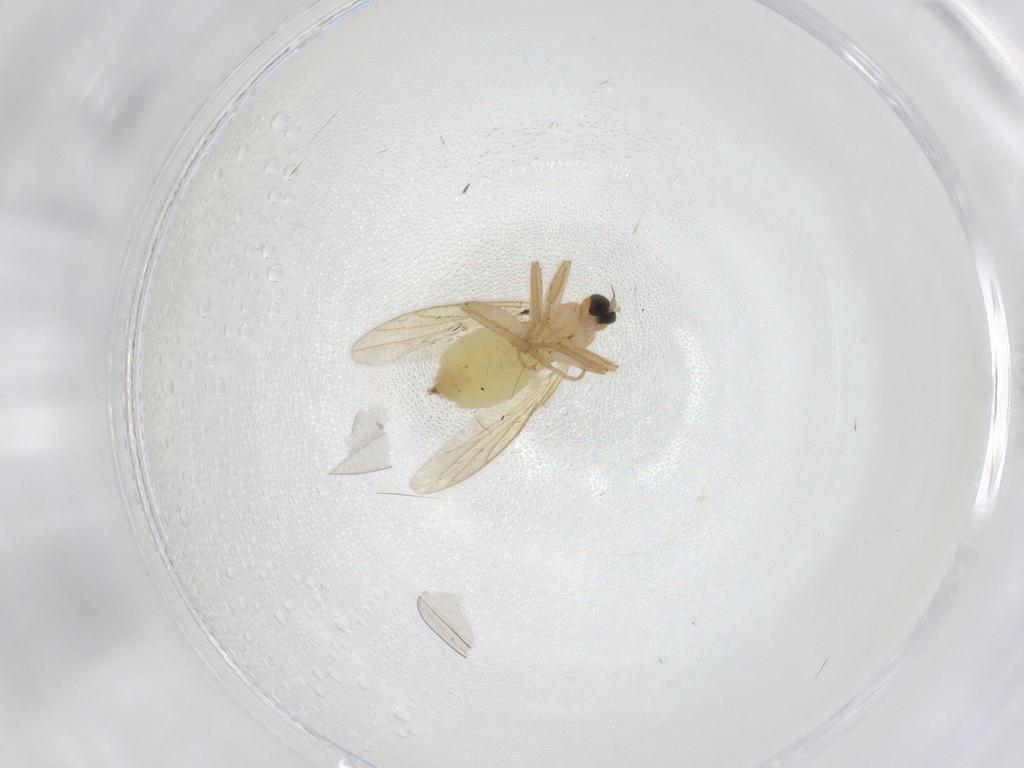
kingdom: Animalia
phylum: Arthropoda
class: Insecta
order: Diptera
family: Hybotidae
